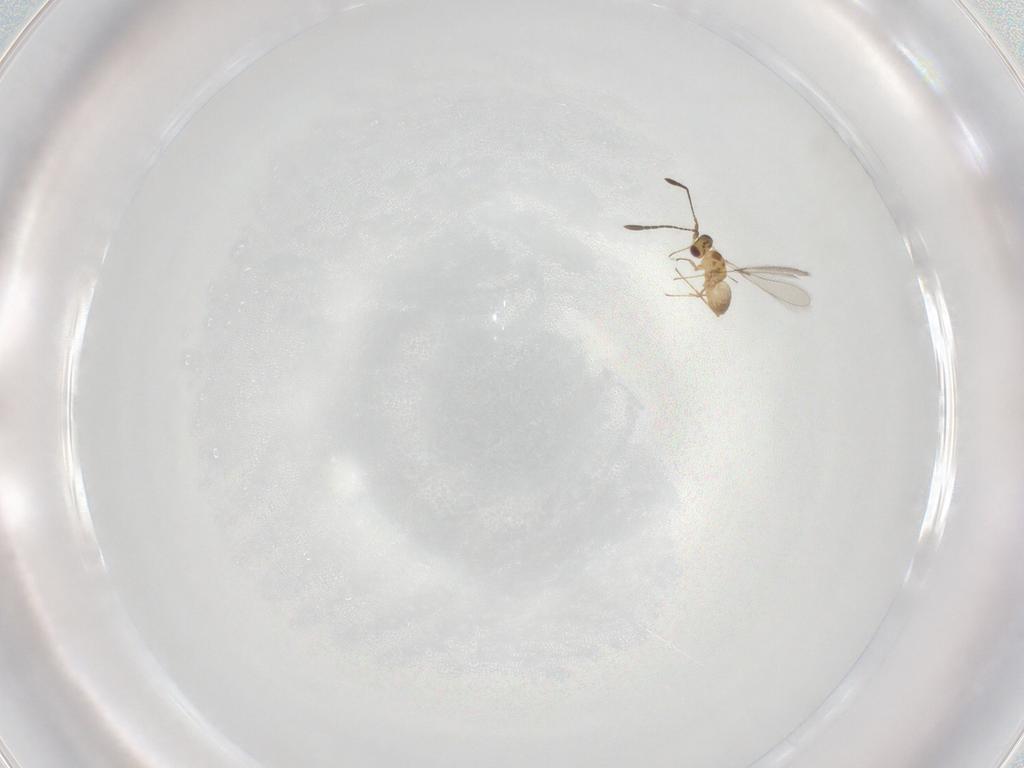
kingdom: Animalia
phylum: Arthropoda
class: Insecta
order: Hymenoptera
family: Mymaridae
